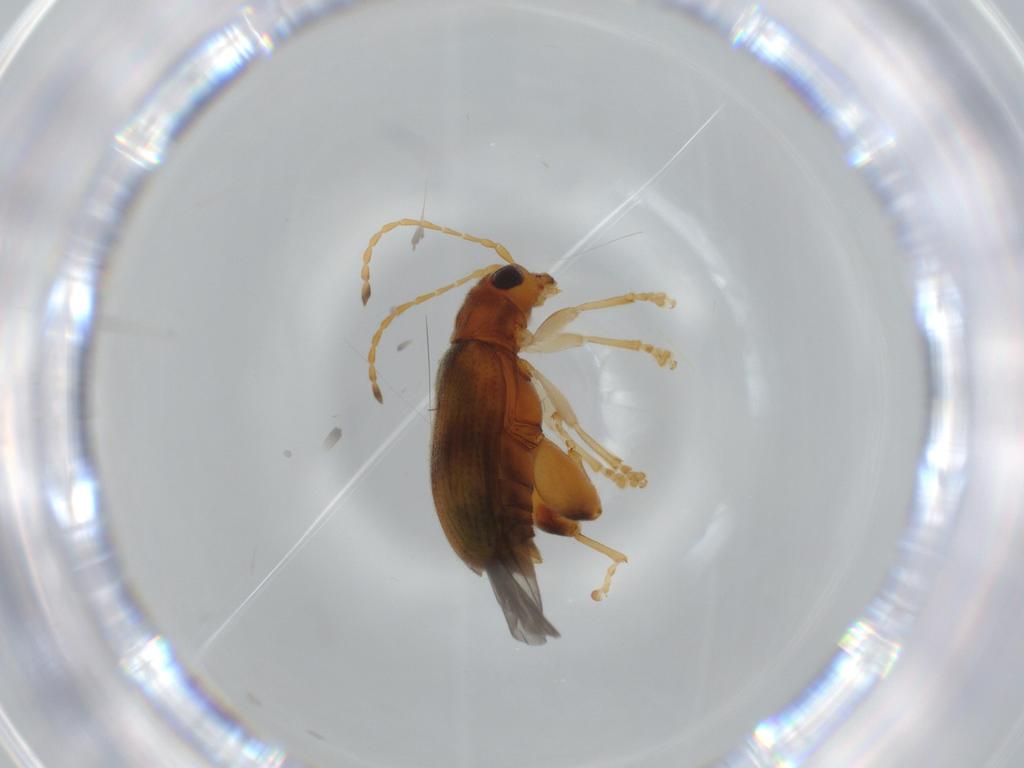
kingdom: Animalia
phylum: Arthropoda
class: Insecta
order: Coleoptera
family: Chrysomelidae
